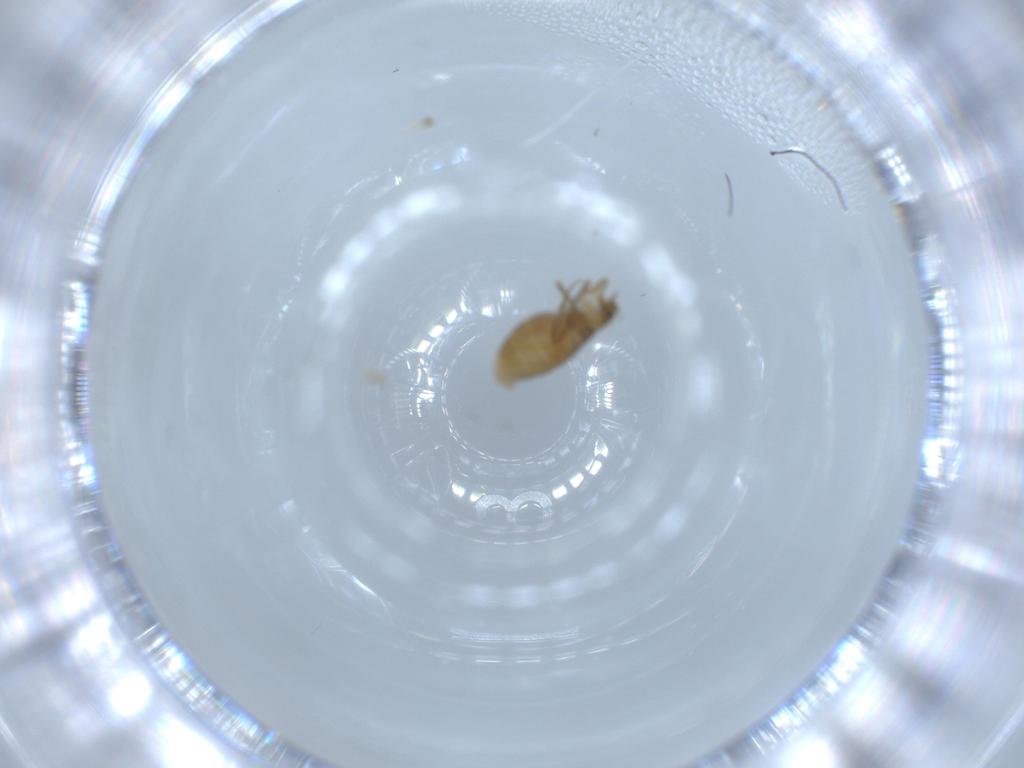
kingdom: Animalia
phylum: Arthropoda
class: Insecta
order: Diptera
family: Phoridae
